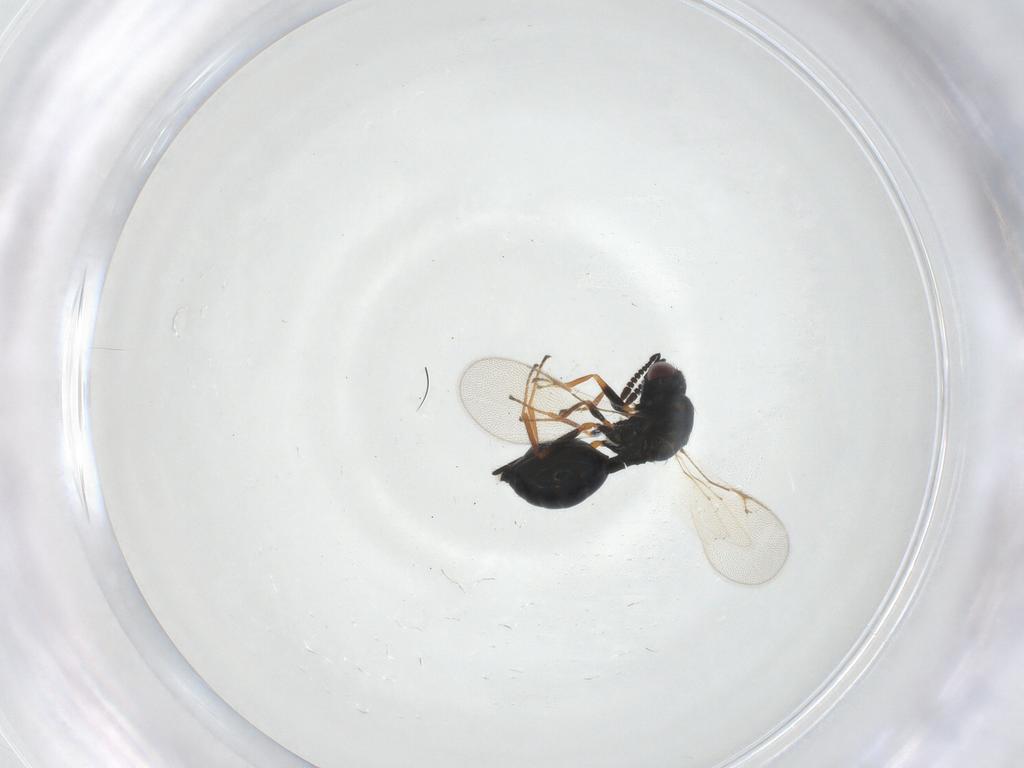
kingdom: Animalia
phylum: Arthropoda
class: Insecta
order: Hymenoptera
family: Chalcidoidea_incertae_sedis
